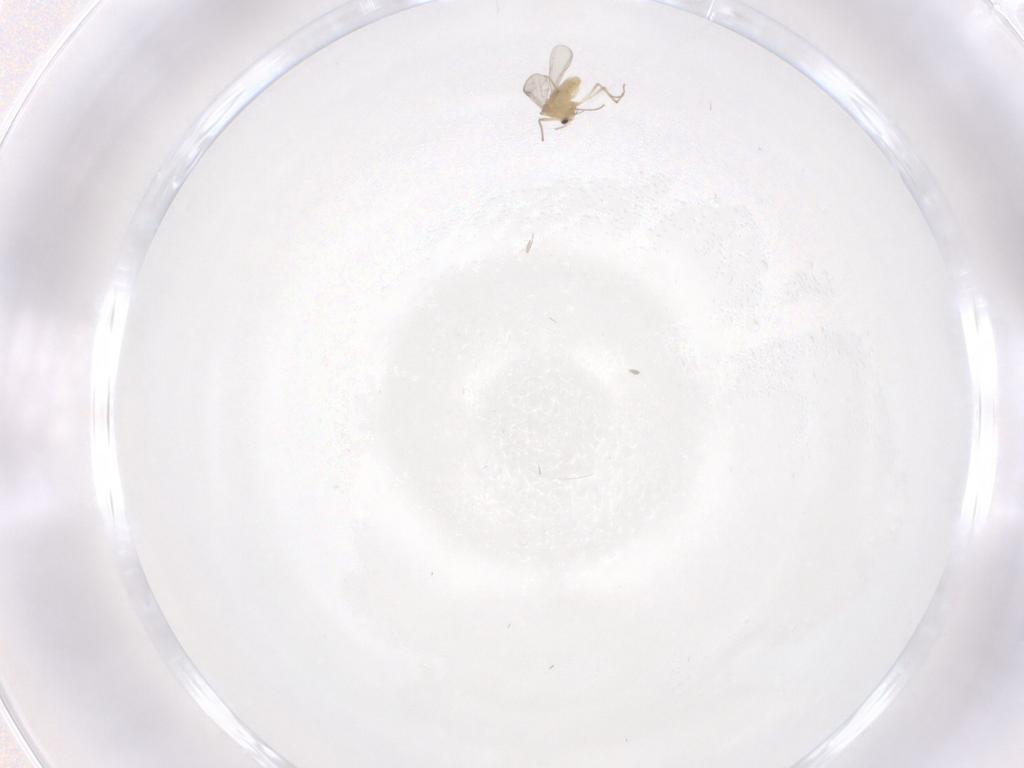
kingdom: Animalia
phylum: Arthropoda
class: Insecta
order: Diptera
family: Chironomidae
